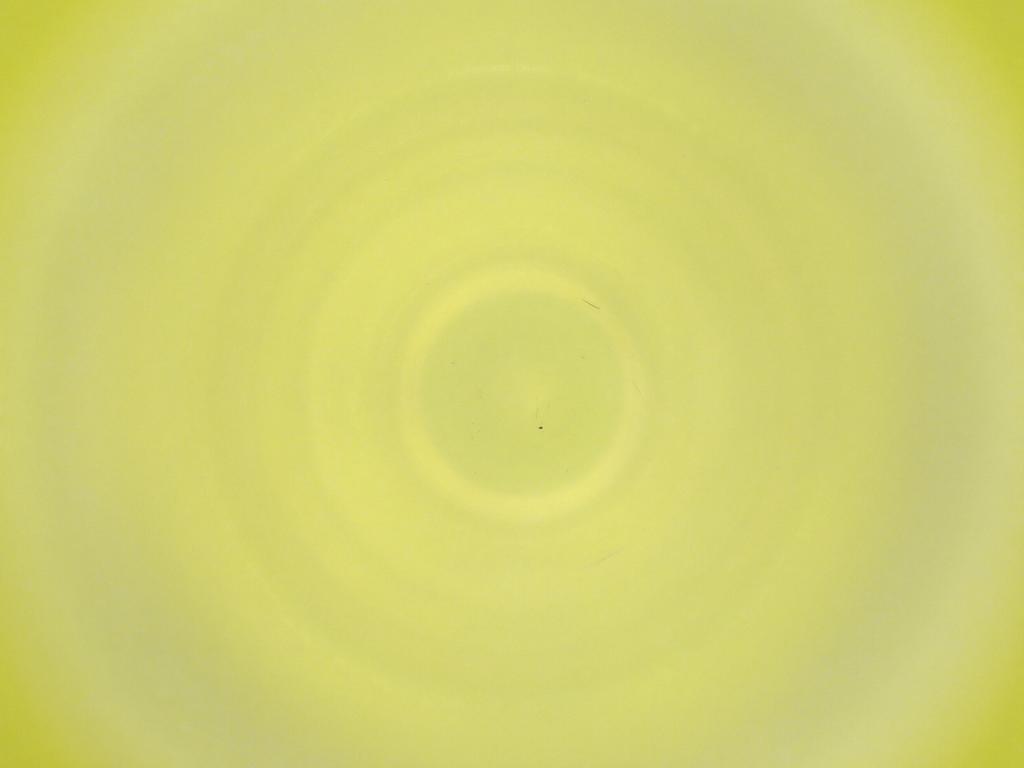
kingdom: Animalia
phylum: Arthropoda
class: Insecta
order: Diptera
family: Cecidomyiidae
